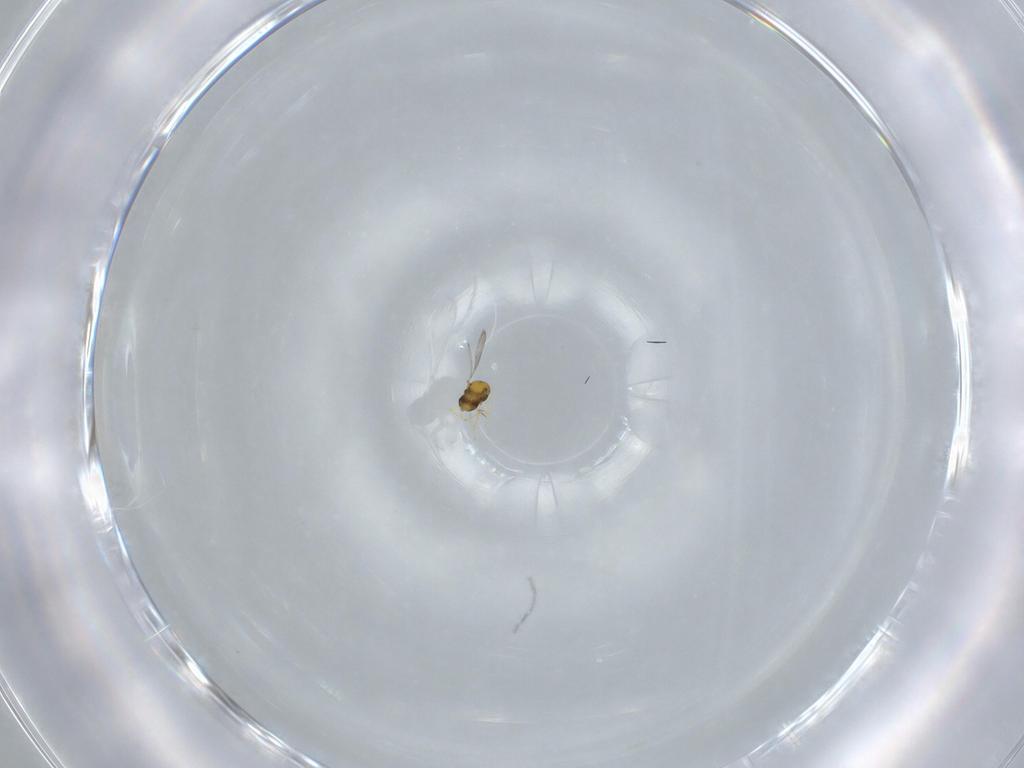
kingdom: Animalia
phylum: Arthropoda
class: Insecta
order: Hymenoptera
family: Aphelinidae
